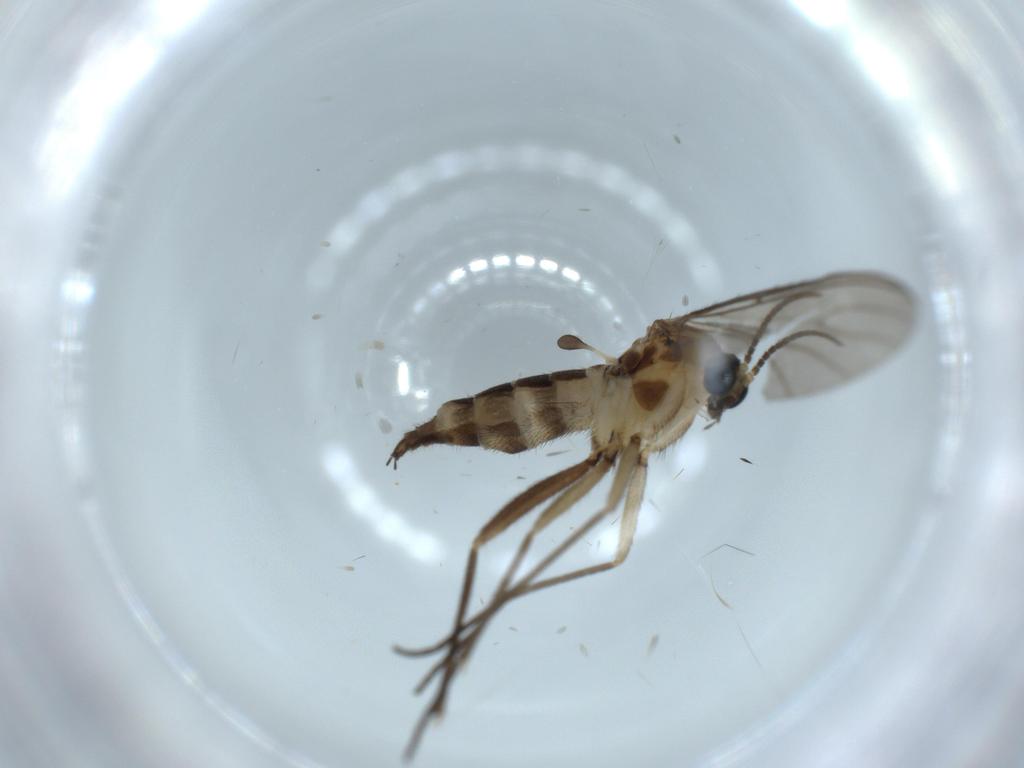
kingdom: Animalia
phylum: Arthropoda
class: Insecta
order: Diptera
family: Sciaridae
